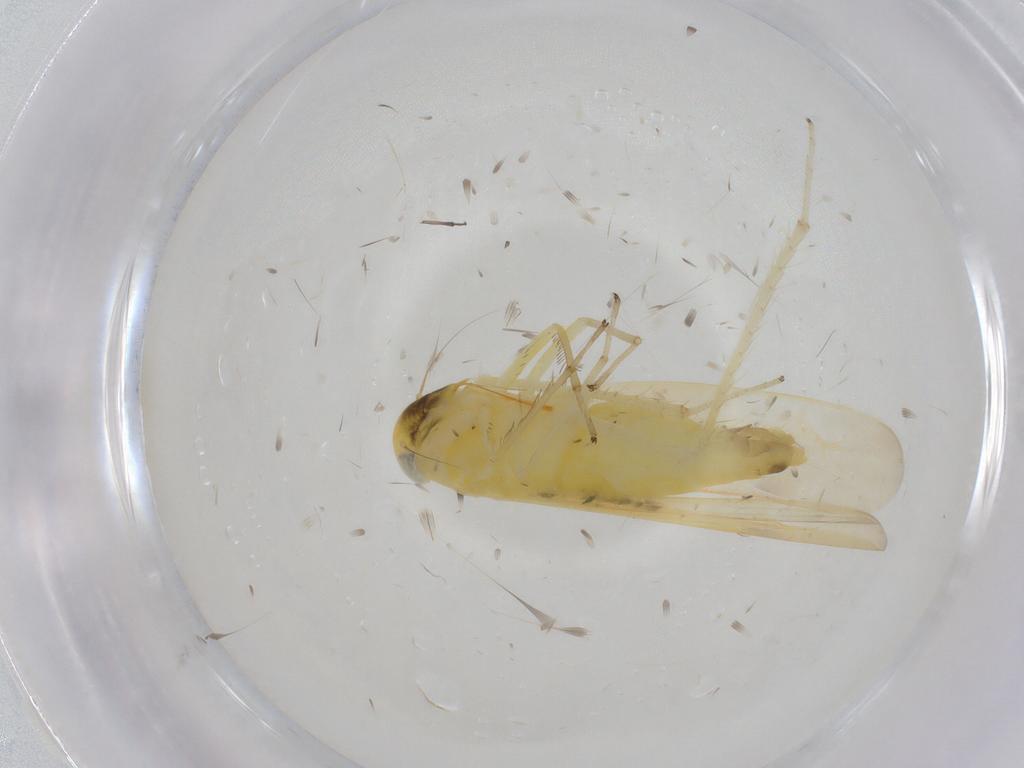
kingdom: Animalia
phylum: Arthropoda
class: Insecta
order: Hemiptera
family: Cicadellidae
